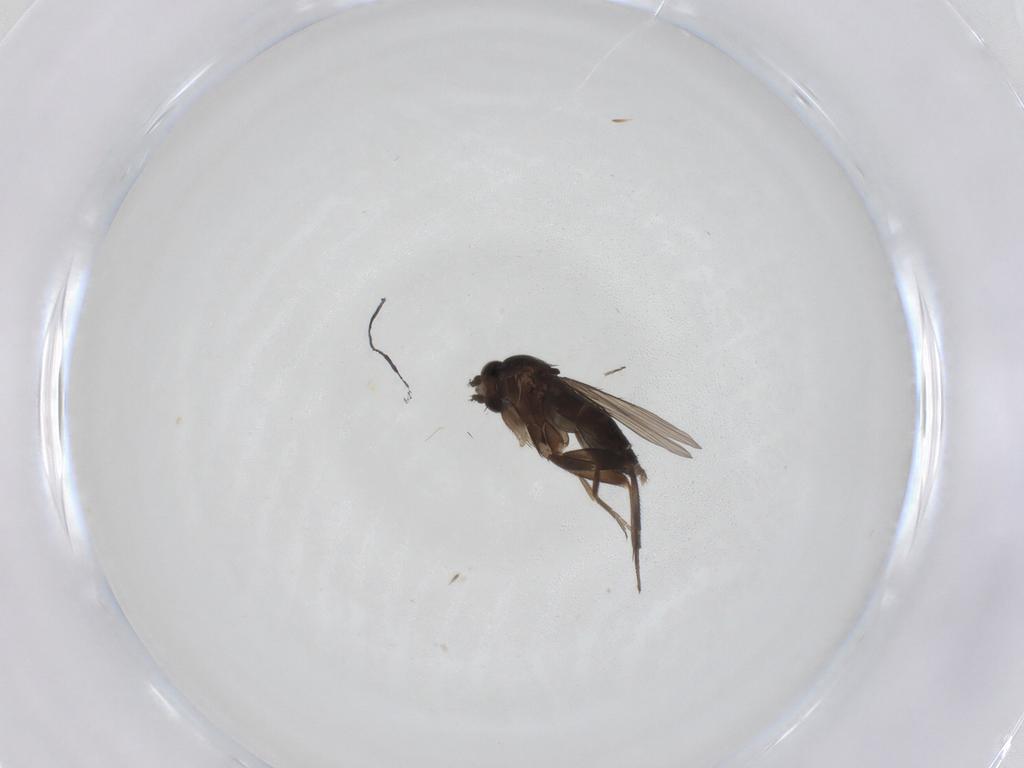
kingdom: Animalia
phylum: Arthropoda
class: Insecta
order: Diptera
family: Phoridae
